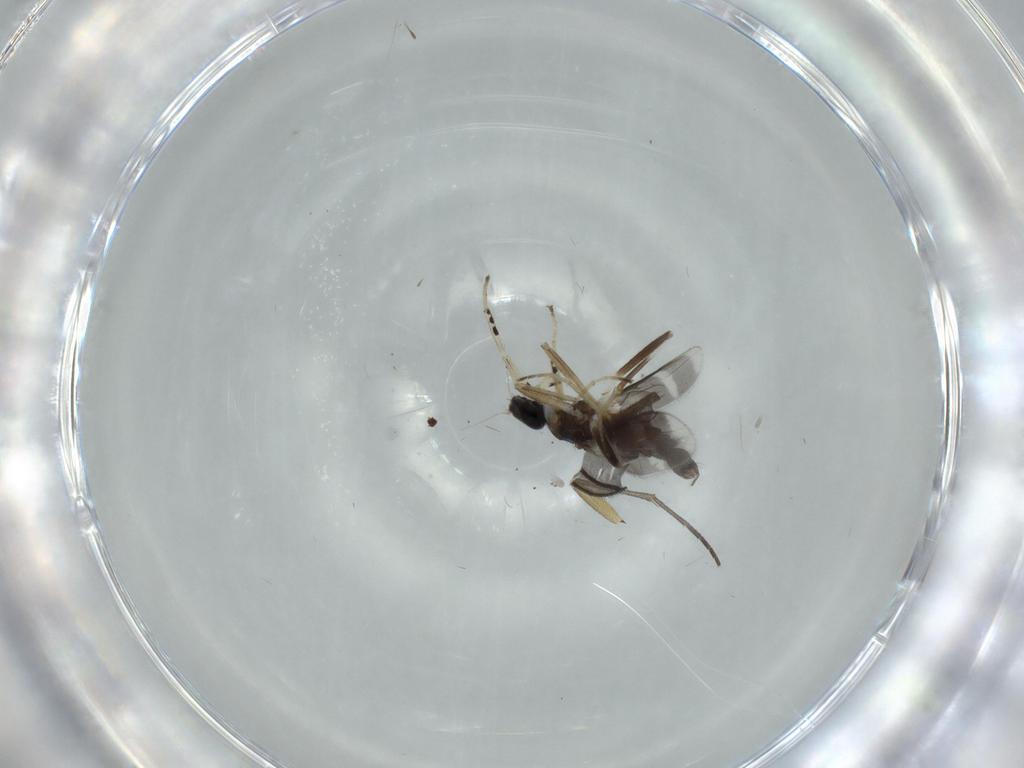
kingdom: Animalia
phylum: Arthropoda
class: Insecta
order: Diptera
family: Hybotidae
